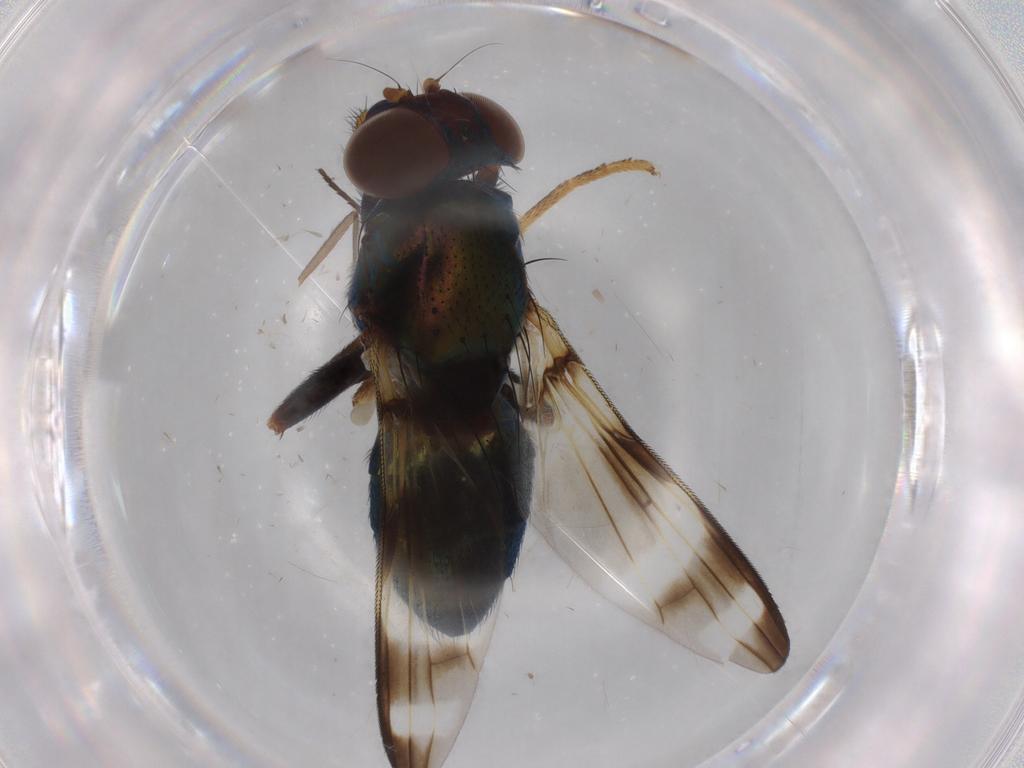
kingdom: Animalia
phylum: Arthropoda
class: Insecta
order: Diptera
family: Ulidiidae
